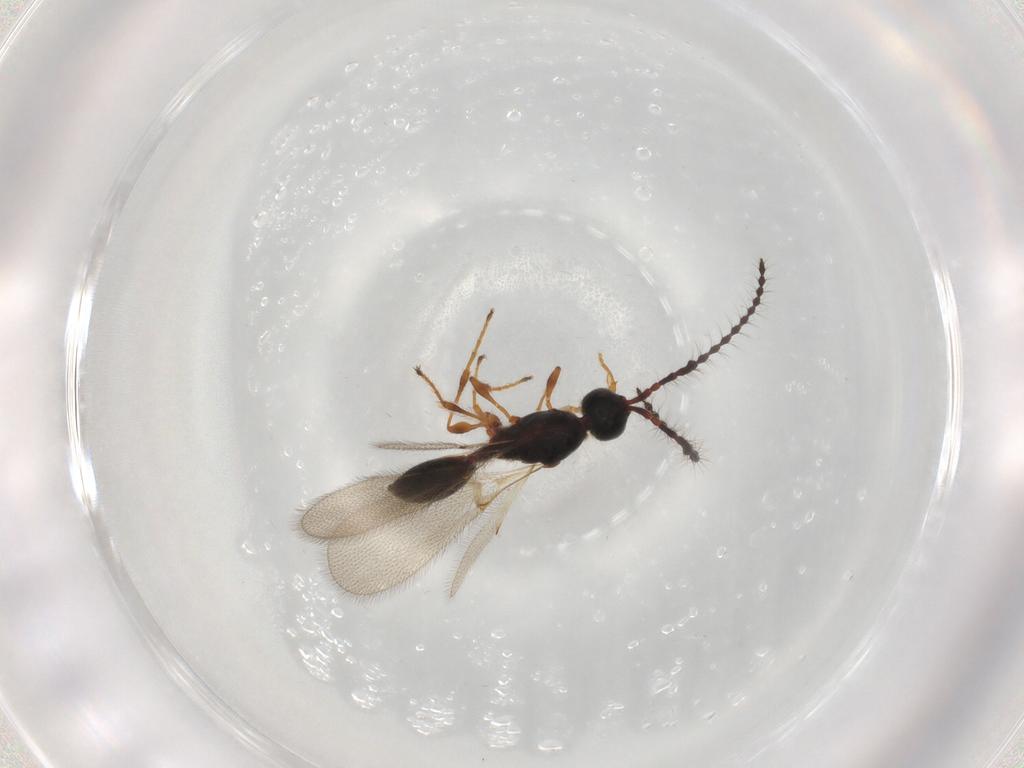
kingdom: Animalia
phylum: Arthropoda
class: Insecta
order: Hymenoptera
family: Diapriidae
